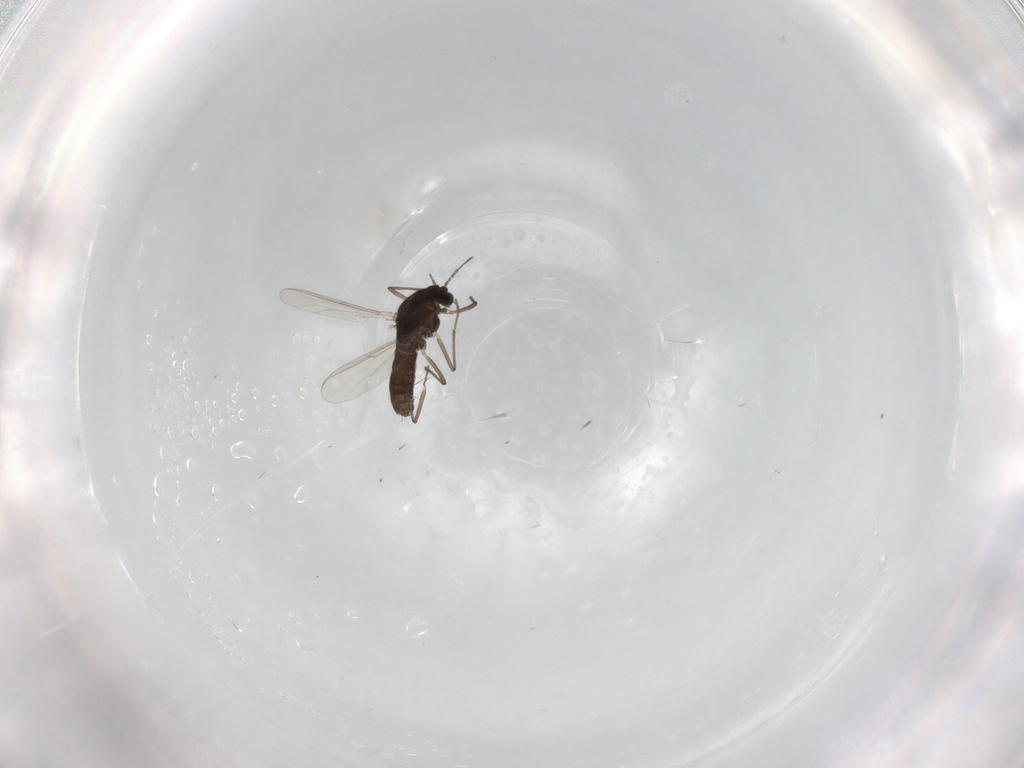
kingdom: Animalia
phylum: Arthropoda
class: Insecta
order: Diptera
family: Chironomidae
